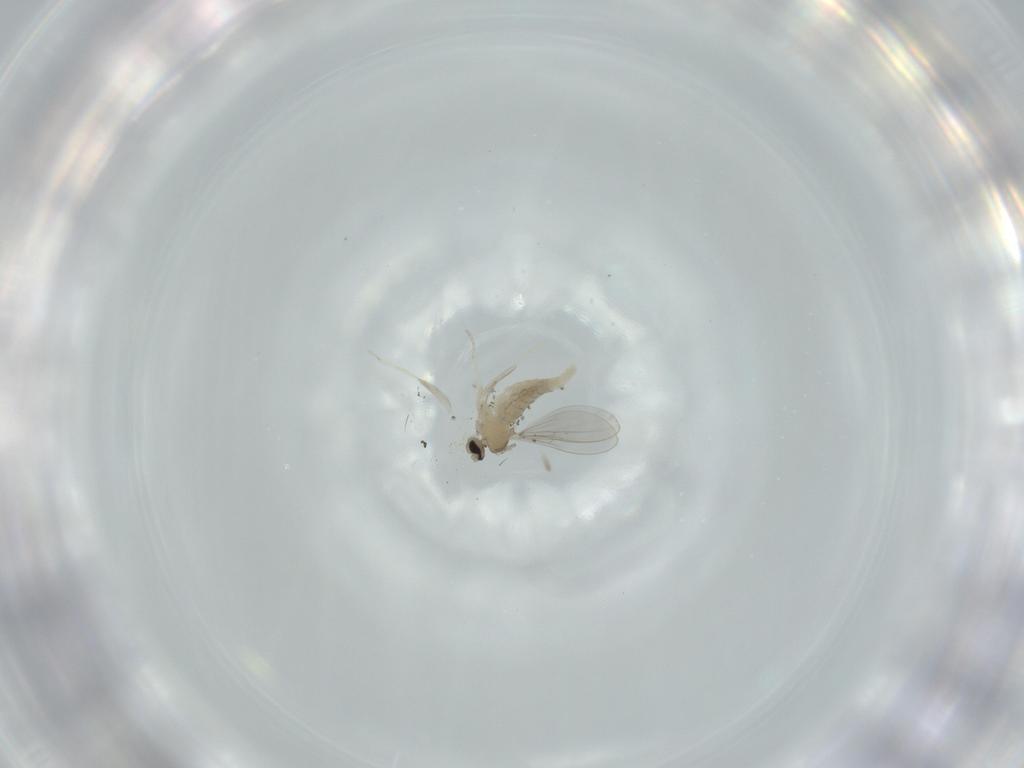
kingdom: Animalia
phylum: Arthropoda
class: Insecta
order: Diptera
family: Cecidomyiidae
